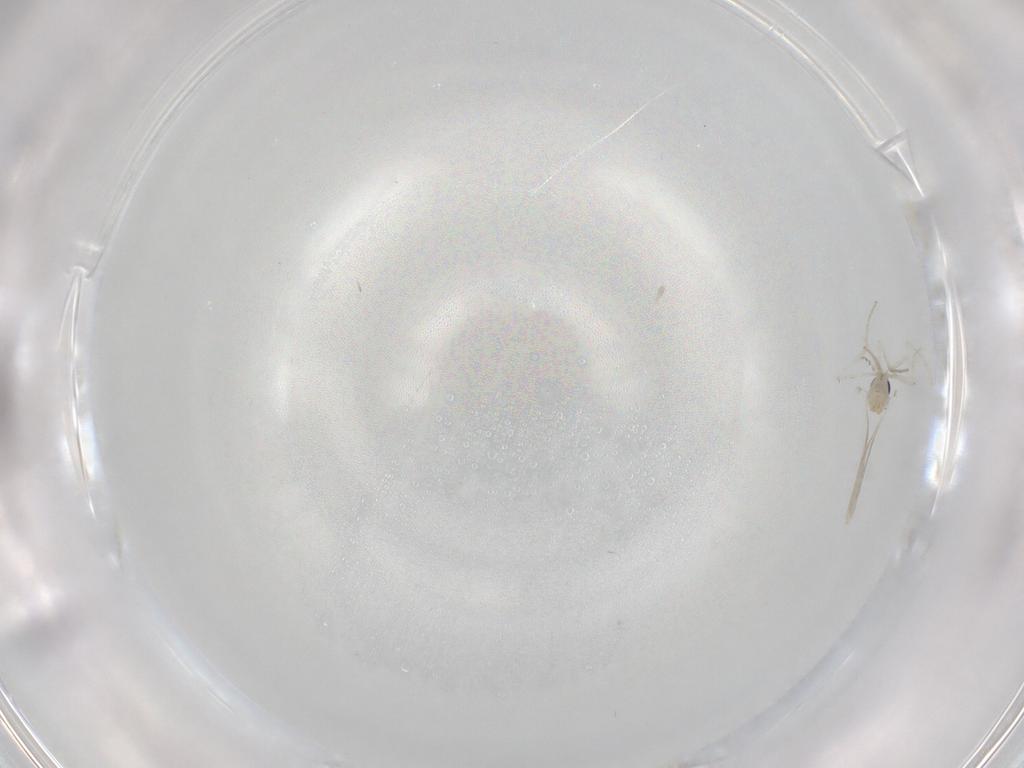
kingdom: Animalia
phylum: Arthropoda
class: Insecta
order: Diptera
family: Cecidomyiidae
